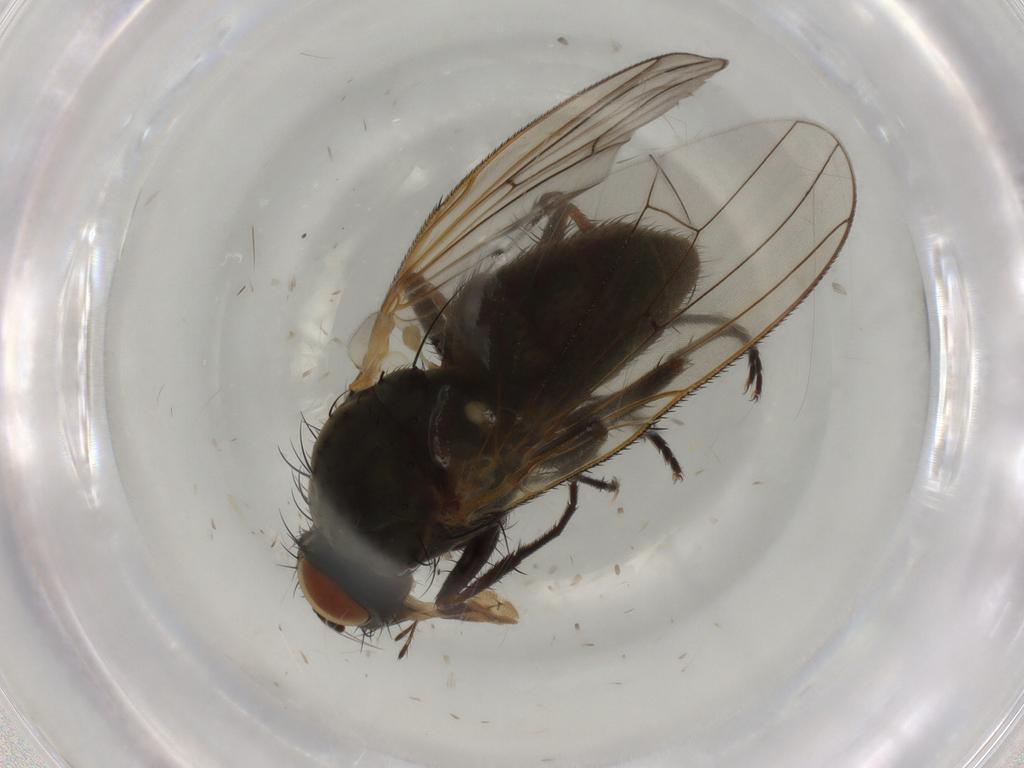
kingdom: Animalia
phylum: Arthropoda
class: Insecta
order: Diptera
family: Phoridae
